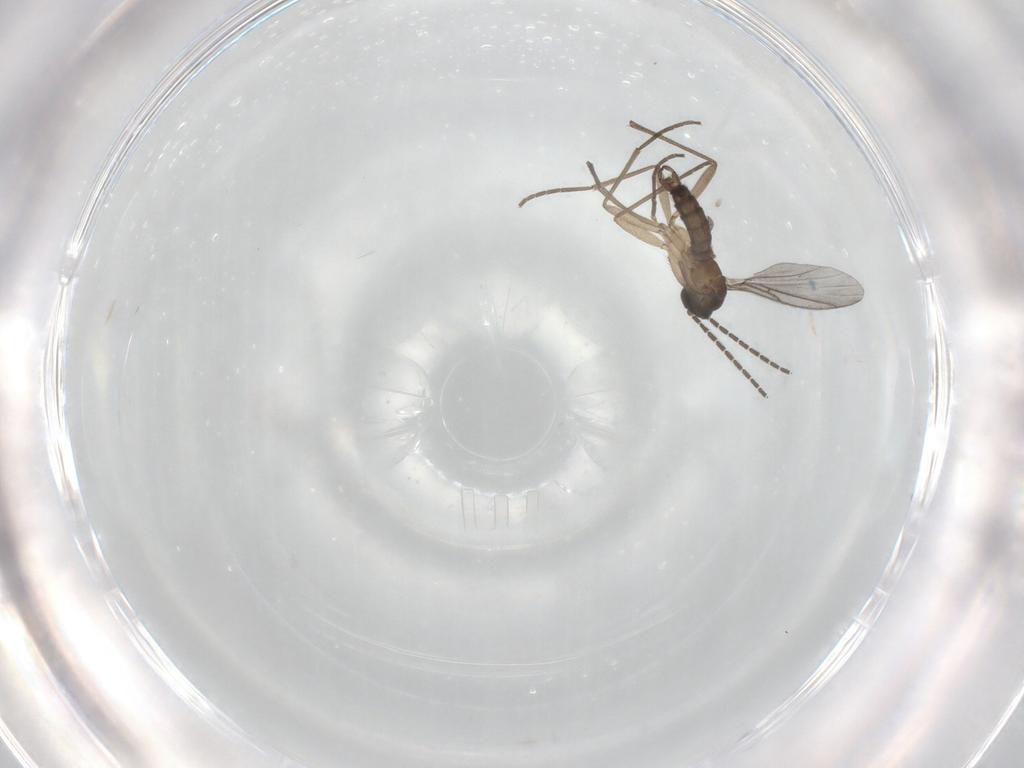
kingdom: Animalia
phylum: Arthropoda
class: Insecta
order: Diptera
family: Sciaridae
